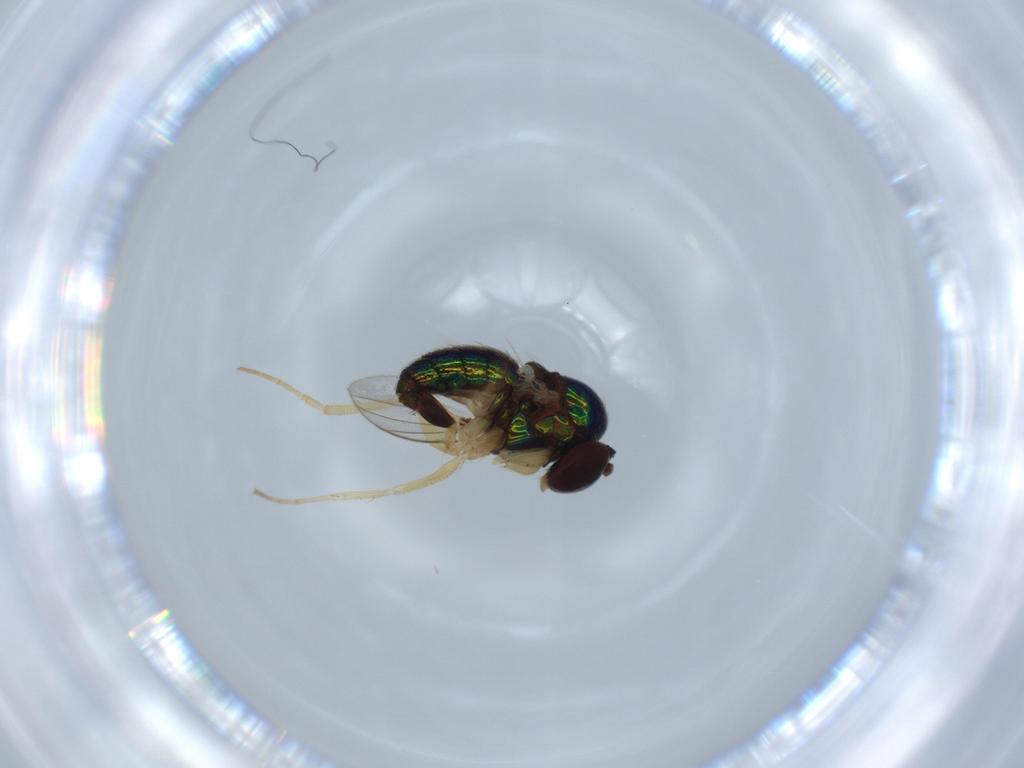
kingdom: Animalia
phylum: Arthropoda
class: Insecta
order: Diptera
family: Dolichopodidae
